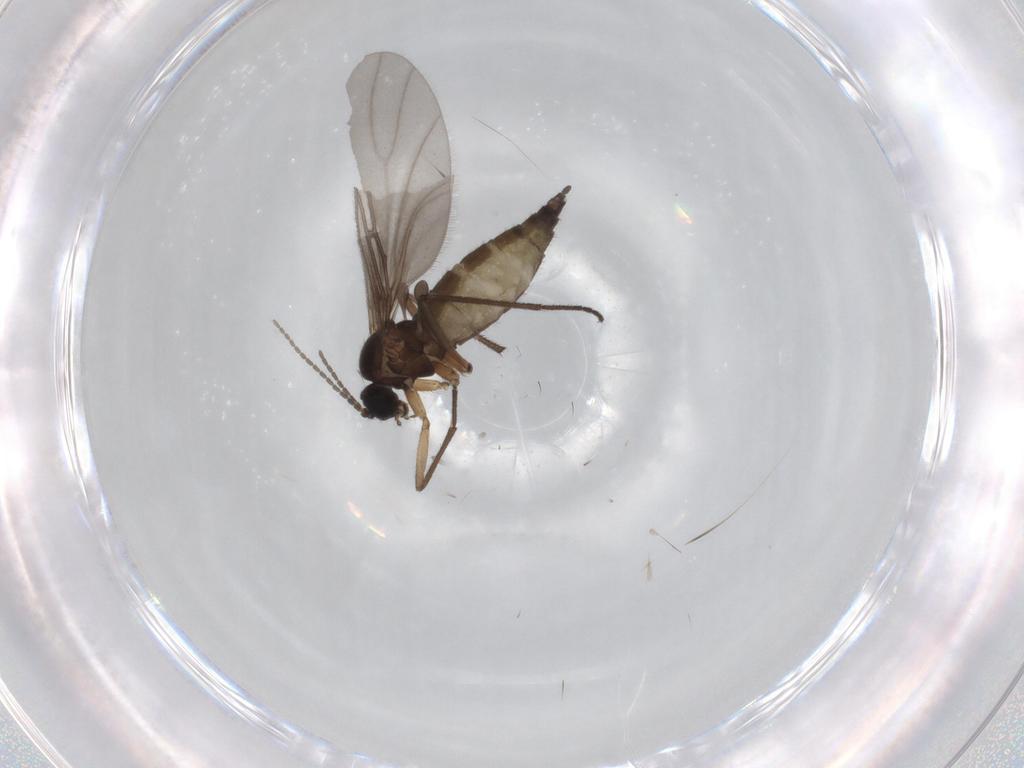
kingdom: Animalia
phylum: Arthropoda
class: Insecta
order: Diptera
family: Sciaridae
